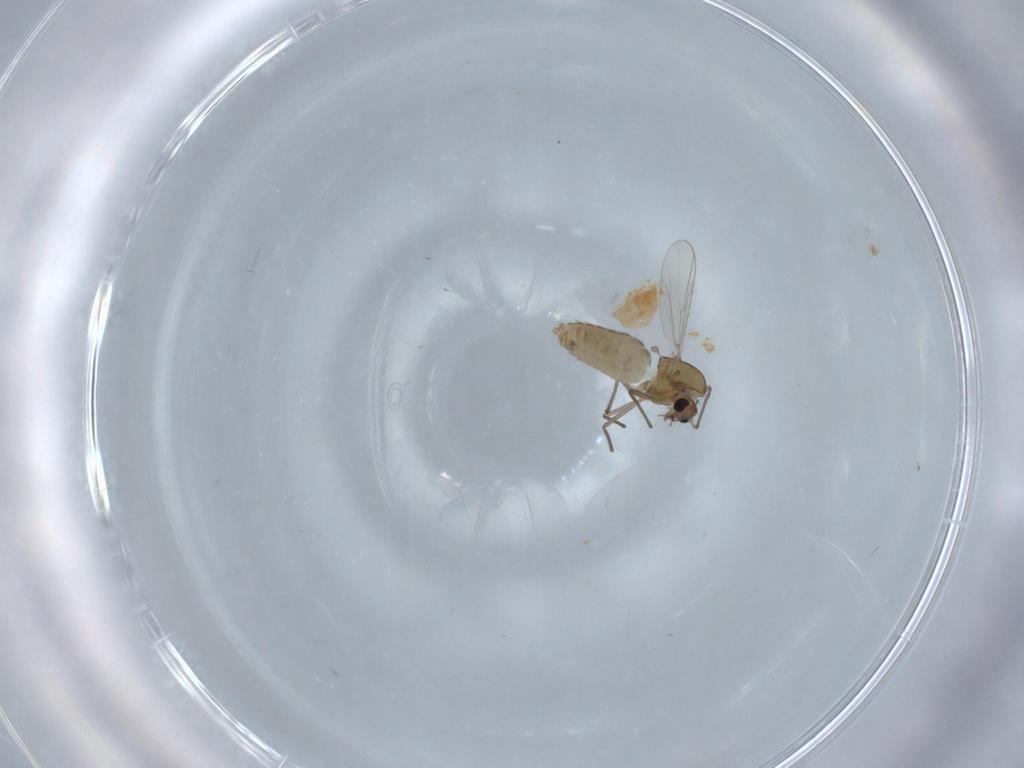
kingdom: Animalia
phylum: Arthropoda
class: Insecta
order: Diptera
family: Chironomidae
